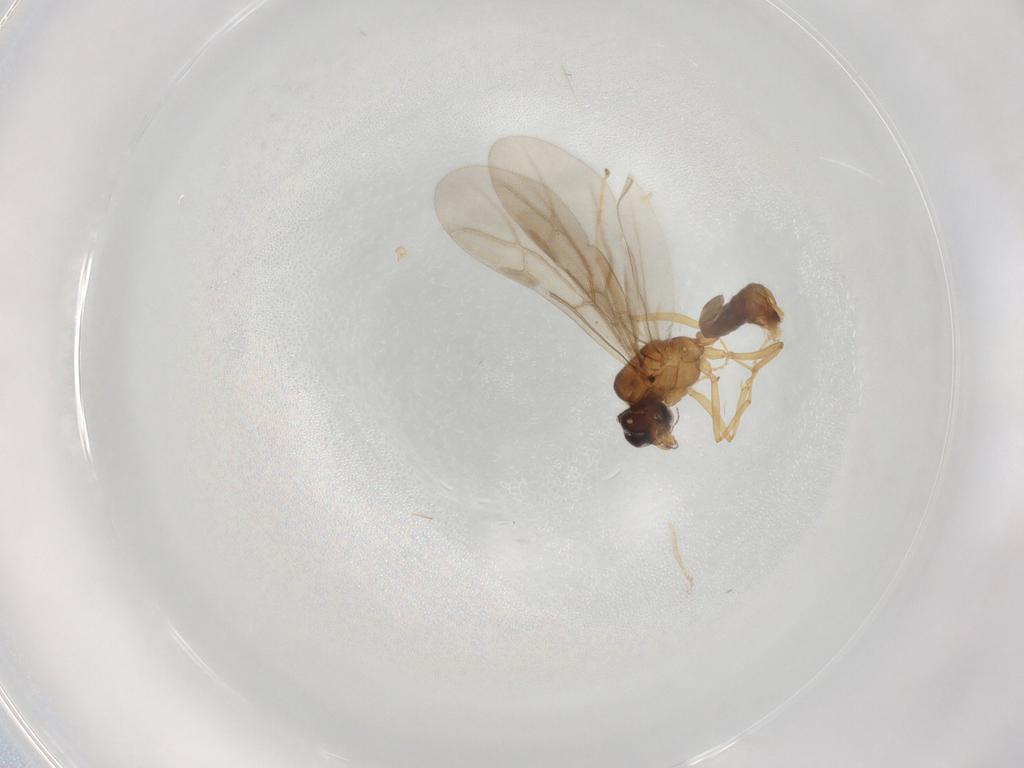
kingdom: Animalia
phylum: Arthropoda
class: Insecta
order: Hymenoptera
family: Formicidae
